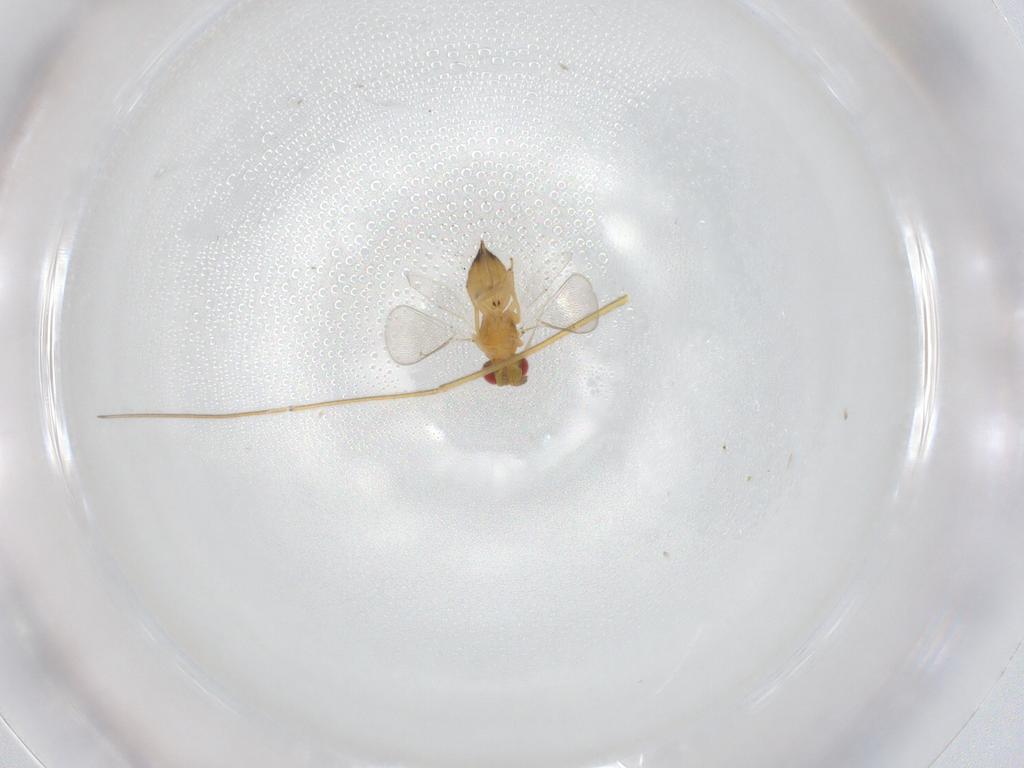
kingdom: Animalia
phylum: Arthropoda
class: Insecta
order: Hymenoptera
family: Eulophidae
